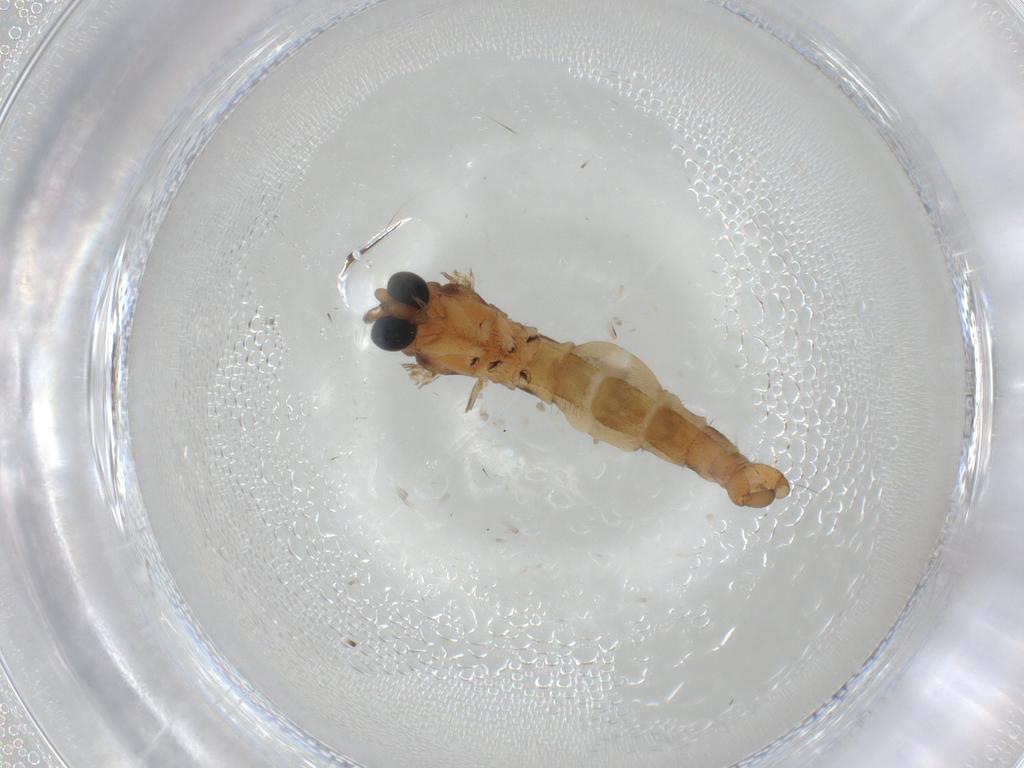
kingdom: Animalia
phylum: Arthropoda
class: Insecta
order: Diptera
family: Sciaridae
